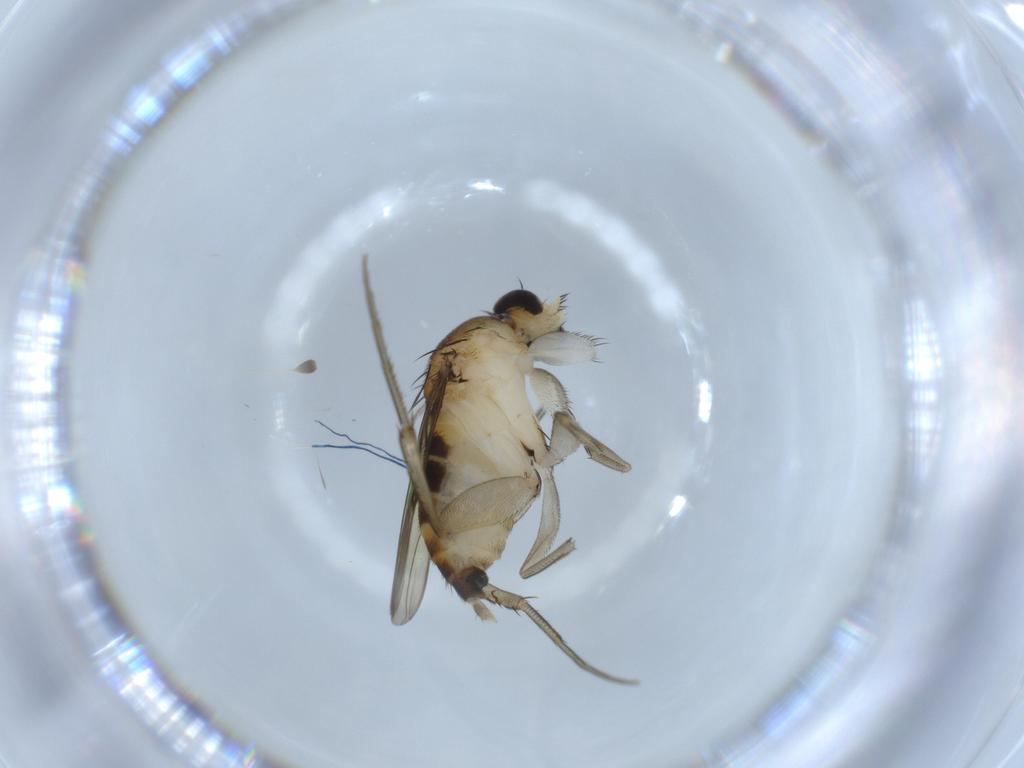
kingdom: Animalia
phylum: Arthropoda
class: Insecta
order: Diptera
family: Phoridae
